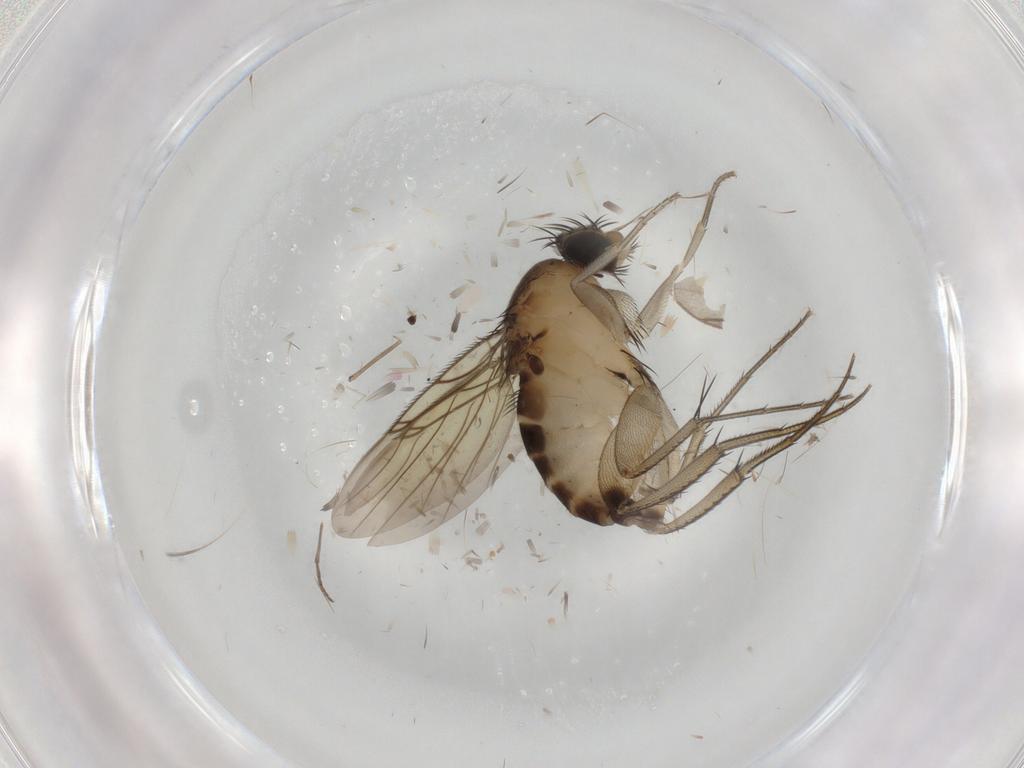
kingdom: Animalia
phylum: Arthropoda
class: Insecta
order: Diptera
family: Phoridae
